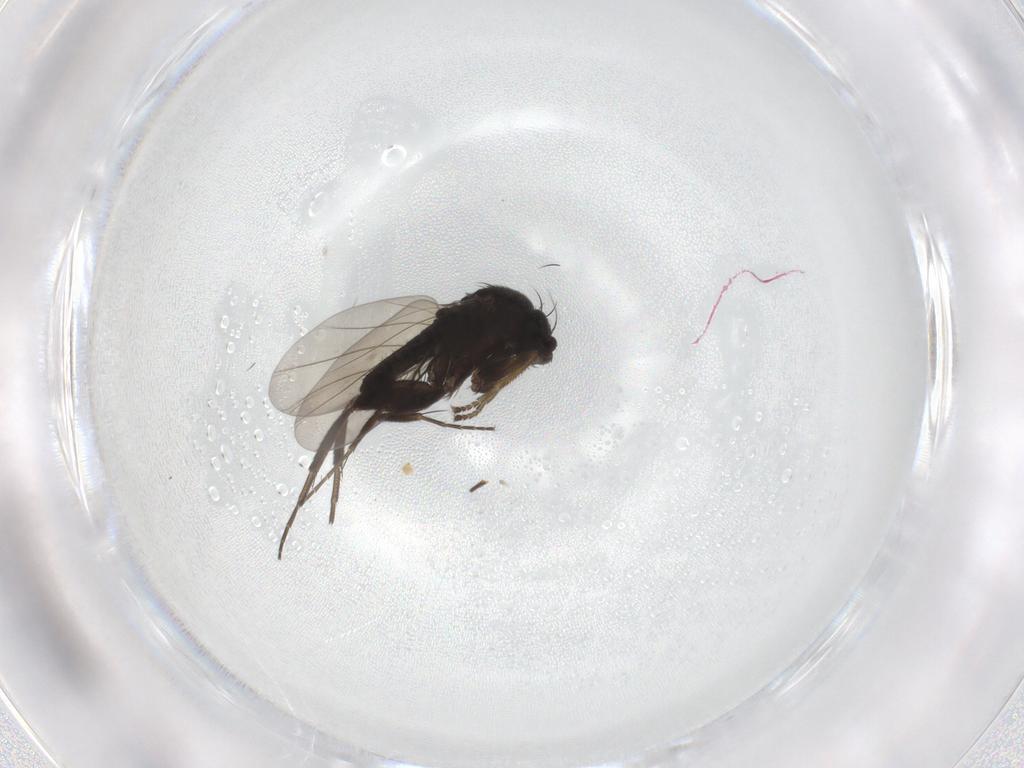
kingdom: Animalia
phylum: Arthropoda
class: Insecta
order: Diptera
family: Phoridae
